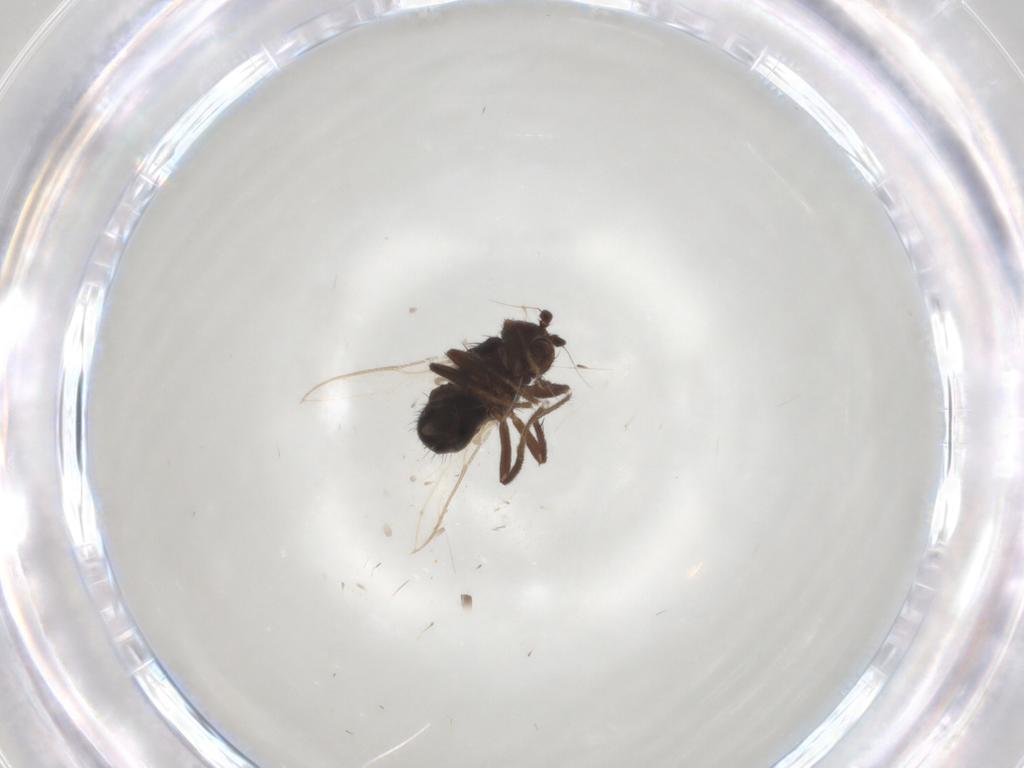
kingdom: Animalia
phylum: Arthropoda
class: Insecta
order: Diptera
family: Sphaeroceridae
